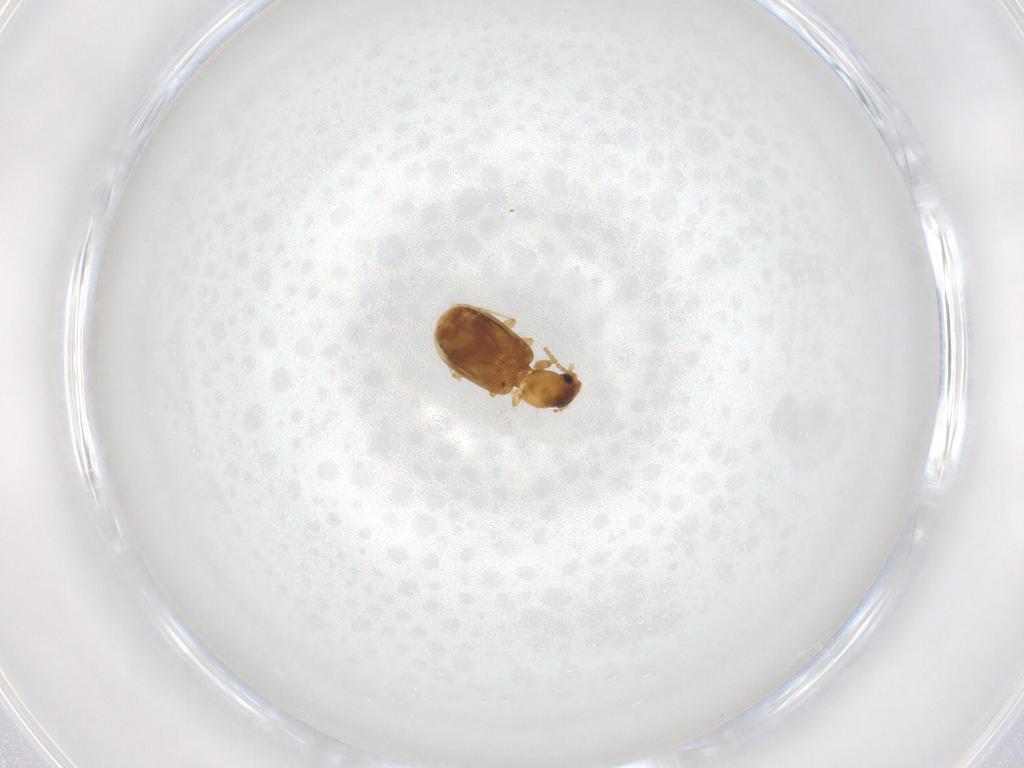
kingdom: Animalia
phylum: Arthropoda
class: Insecta
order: Coleoptera
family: Carabidae
